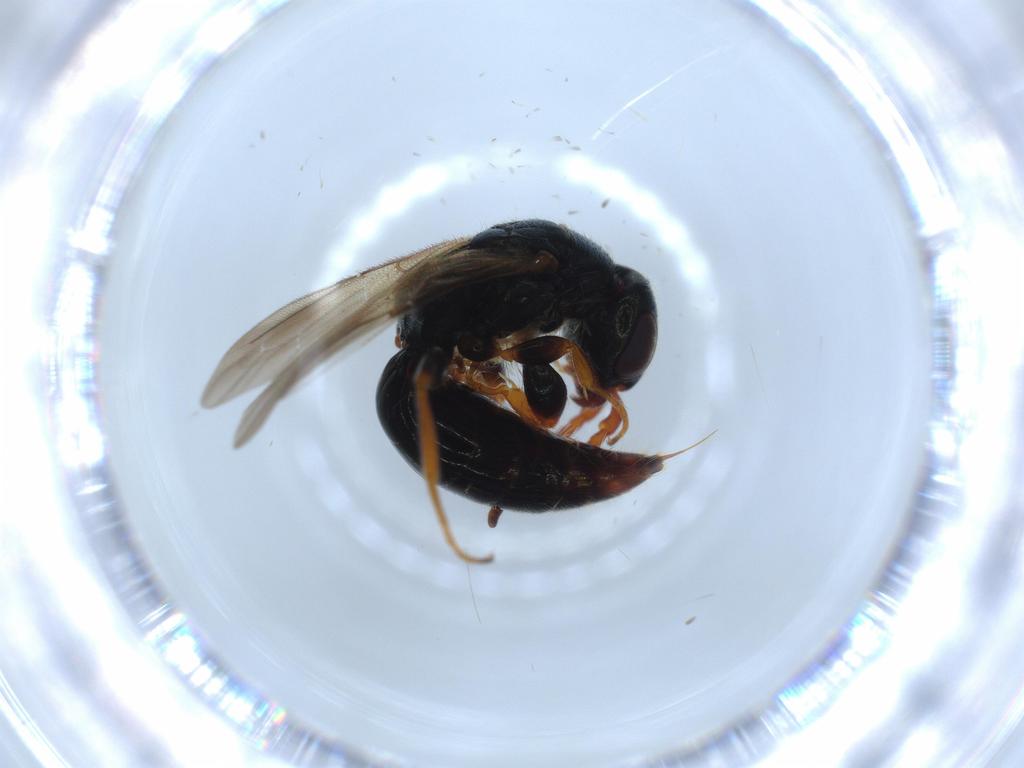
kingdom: Animalia
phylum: Arthropoda
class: Insecta
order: Hymenoptera
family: Bethylidae
